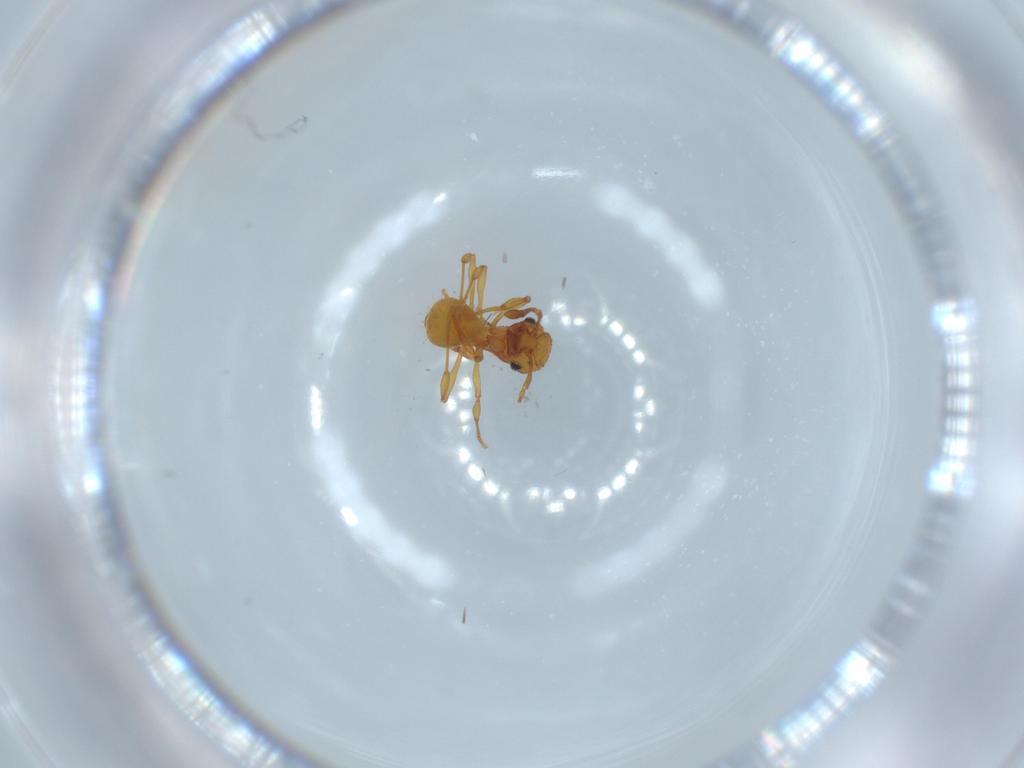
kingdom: Animalia
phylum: Arthropoda
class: Insecta
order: Hymenoptera
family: Formicidae
